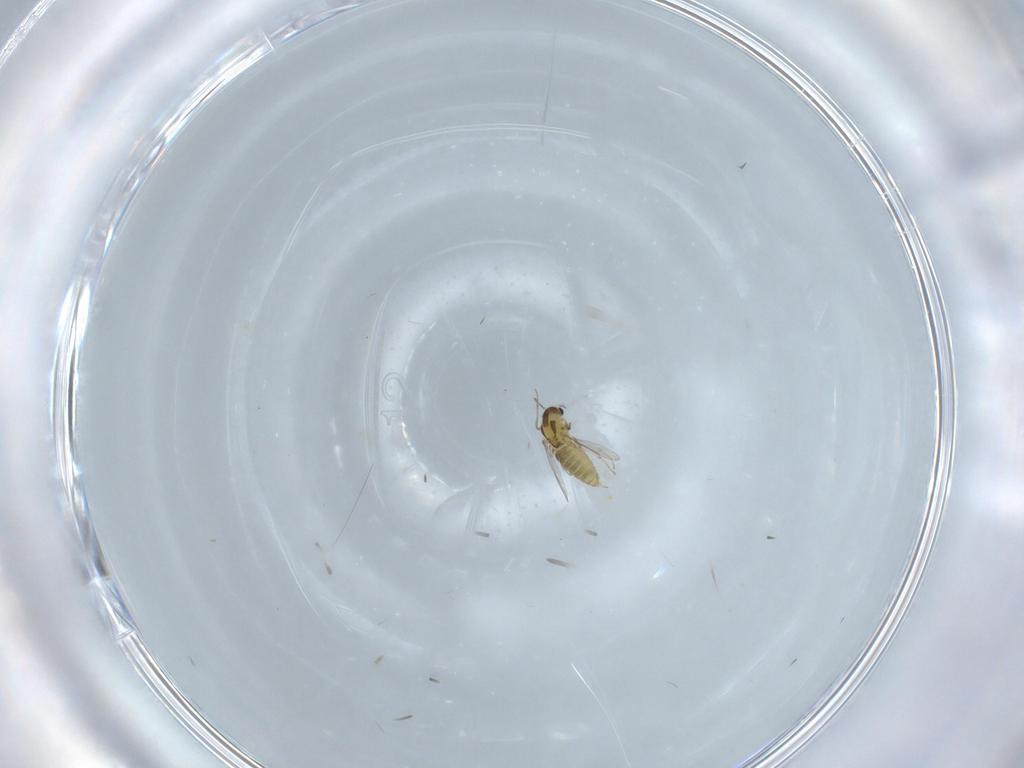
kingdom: Animalia
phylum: Arthropoda
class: Insecta
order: Diptera
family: Chironomidae
